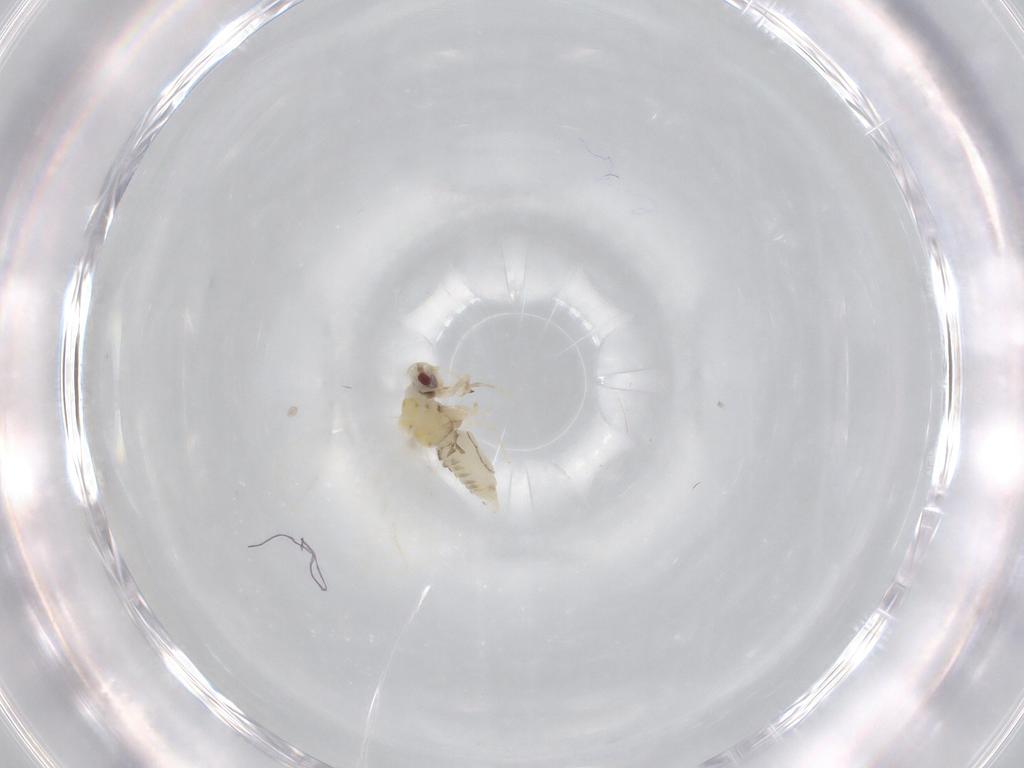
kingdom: Animalia
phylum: Arthropoda
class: Insecta
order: Hemiptera
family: Aleyrodidae
